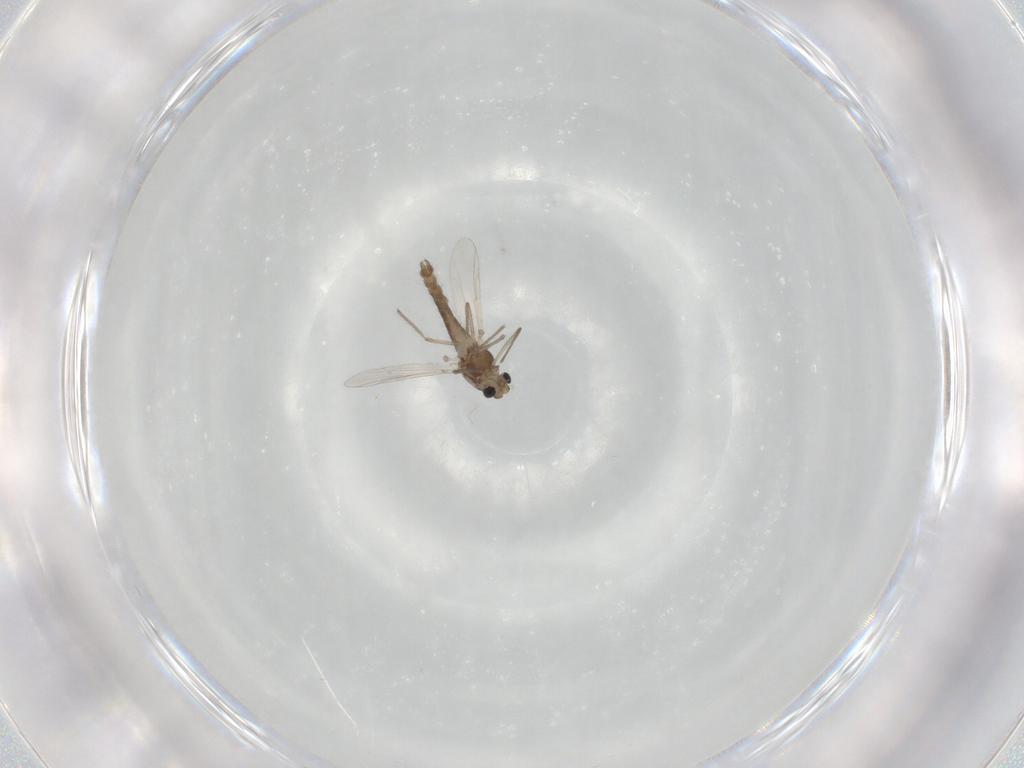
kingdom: Animalia
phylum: Arthropoda
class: Insecta
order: Diptera
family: Chironomidae
